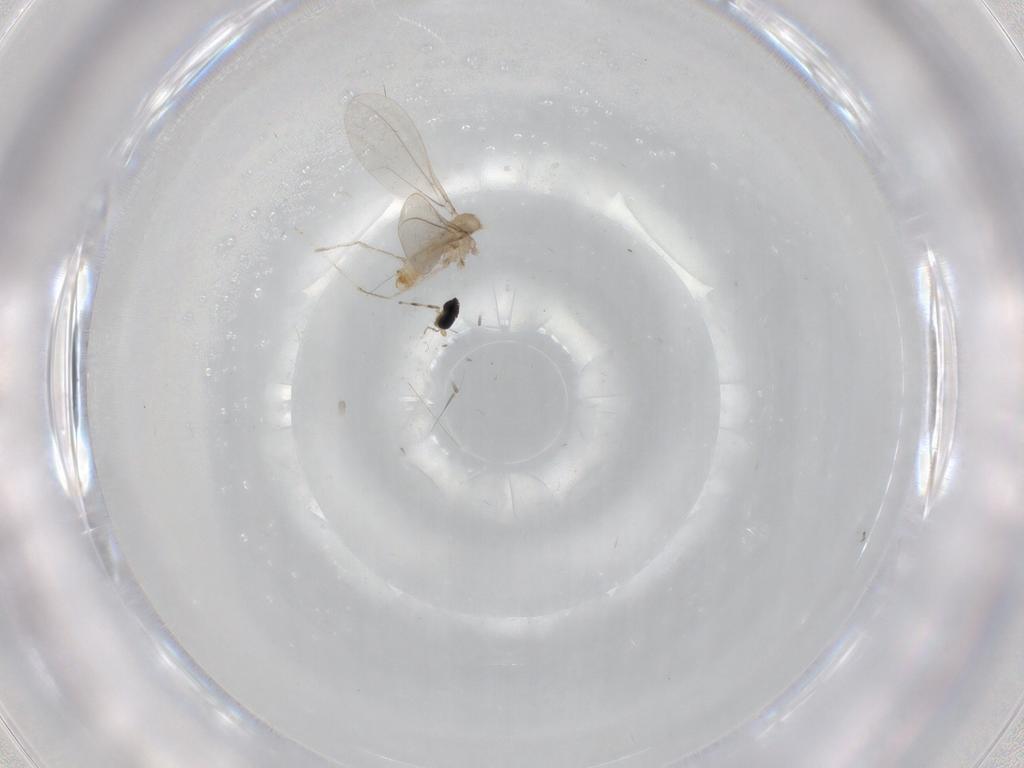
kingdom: Animalia
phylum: Arthropoda
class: Insecta
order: Diptera
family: Cecidomyiidae
